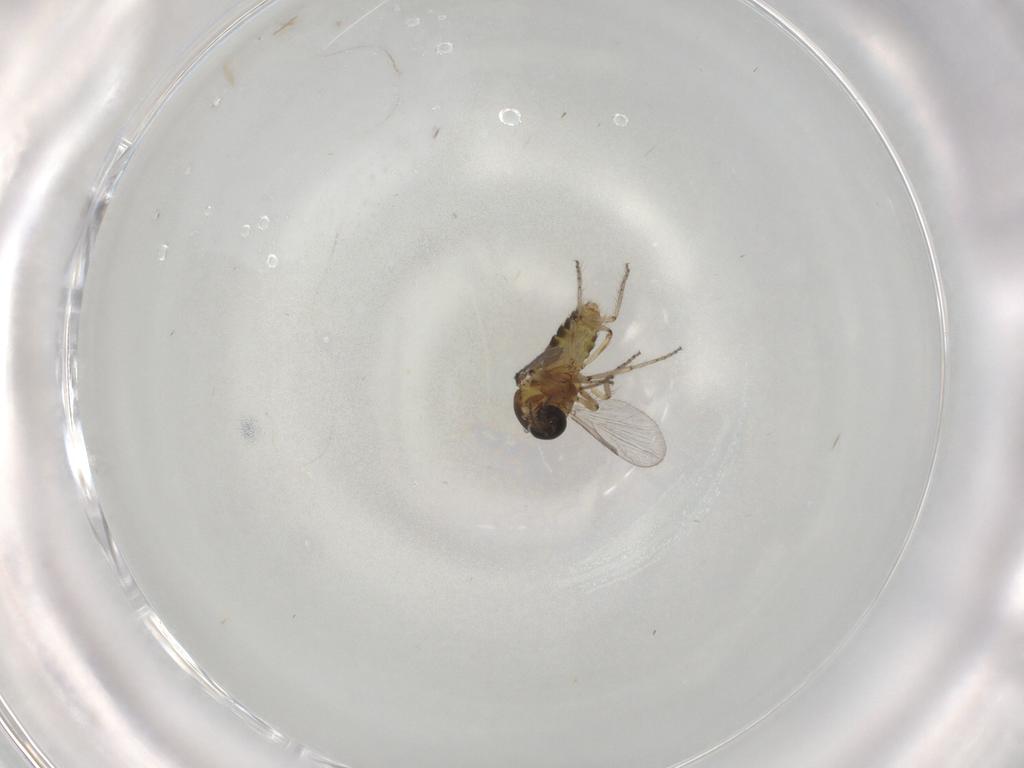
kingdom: Animalia
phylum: Arthropoda
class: Insecta
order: Diptera
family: Ceratopogonidae
